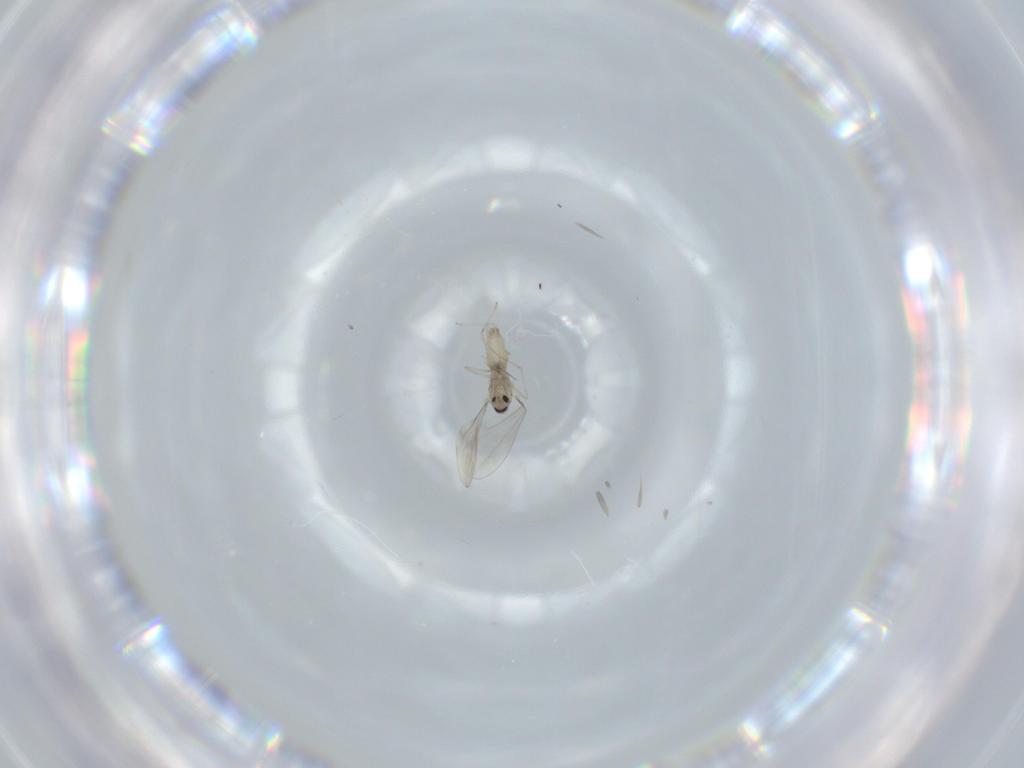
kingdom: Animalia
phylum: Arthropoda
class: Insecta
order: Diptera
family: Cecidomyiidae
